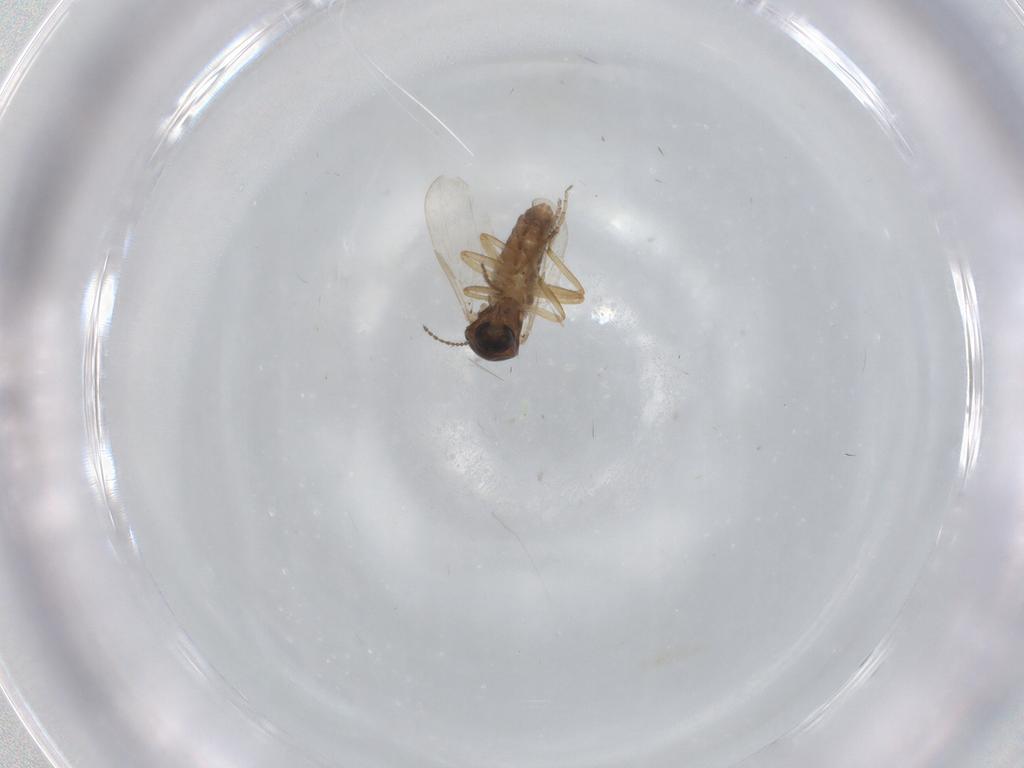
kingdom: Animalia
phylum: Arthropoda
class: Insecta
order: Diptera
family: Ceratopogonidae
